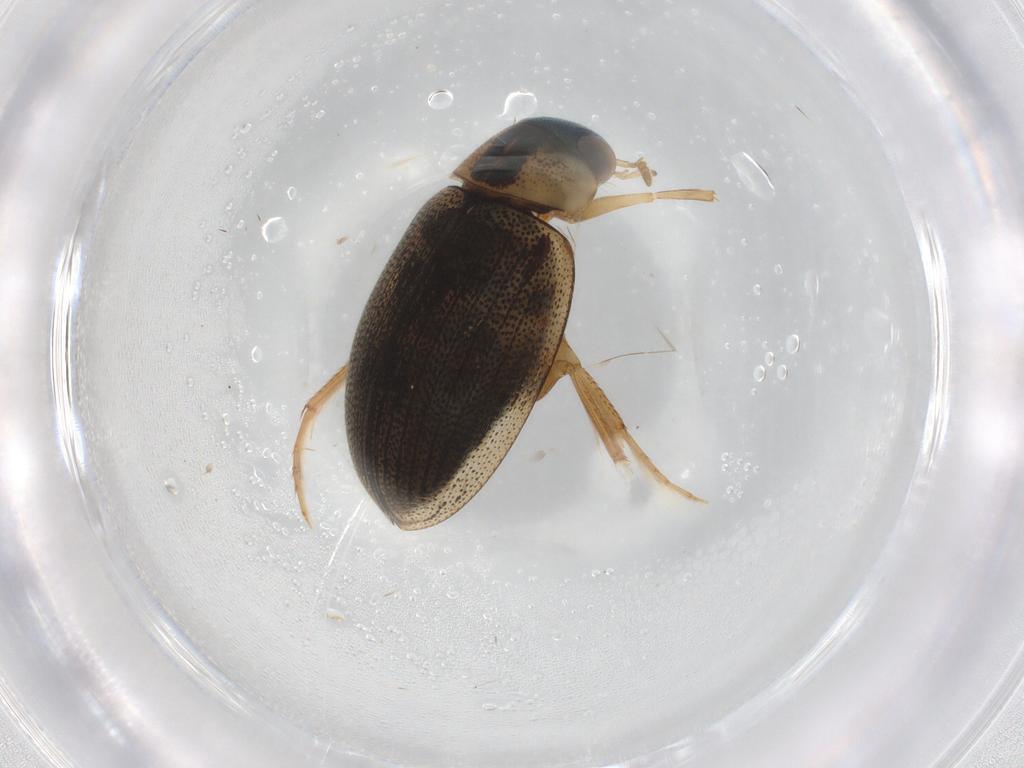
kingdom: Animalia
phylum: Arthropoda
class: Insecta
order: Coleoptera
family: Hydrophilidae
